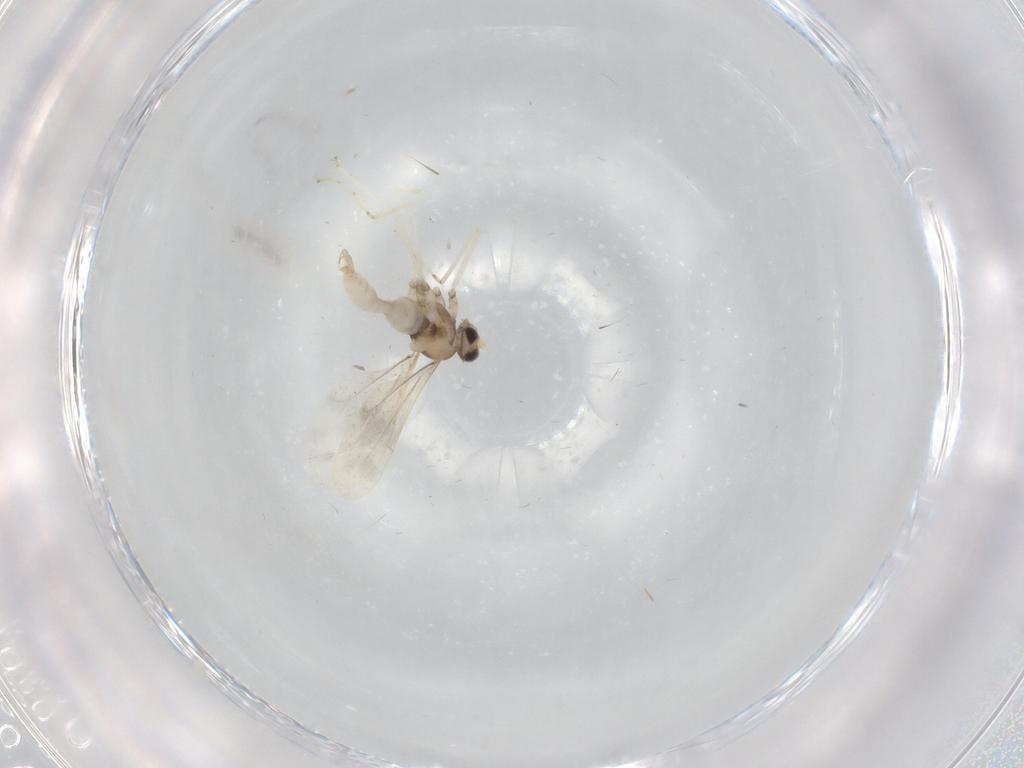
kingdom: Animalia
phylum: Arthropoda
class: Insecta
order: Diptera
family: Cecidomyiidae
